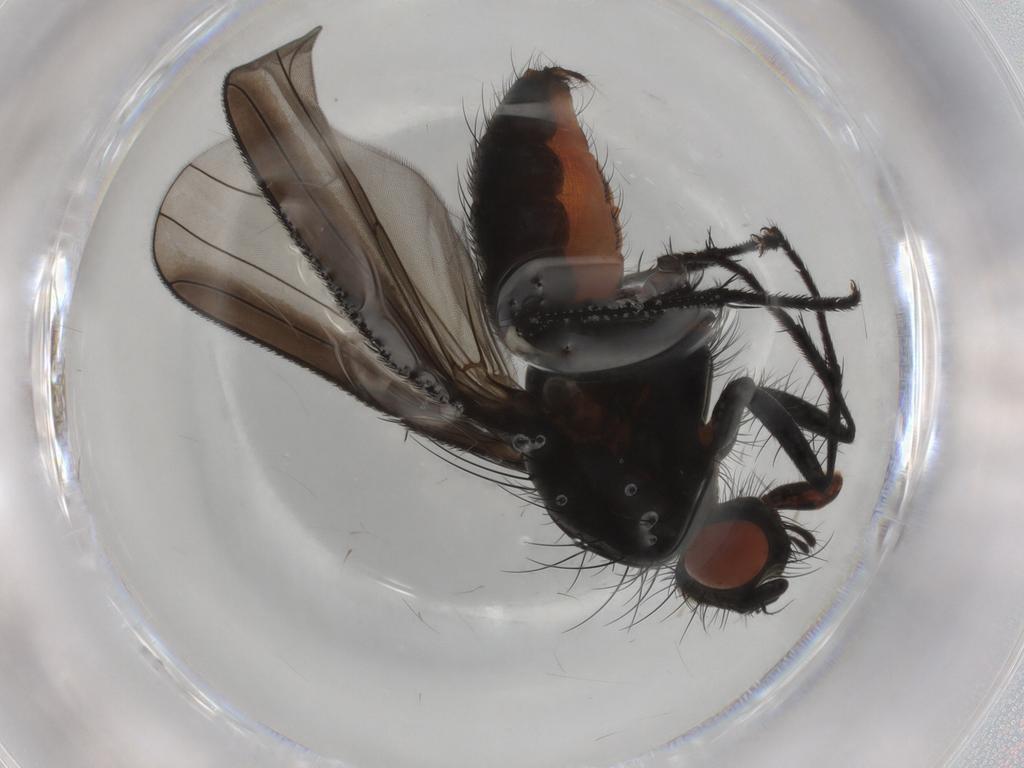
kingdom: Animalia
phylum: Arthropoda
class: Insecta
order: Diptera
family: Anthomyiidae
